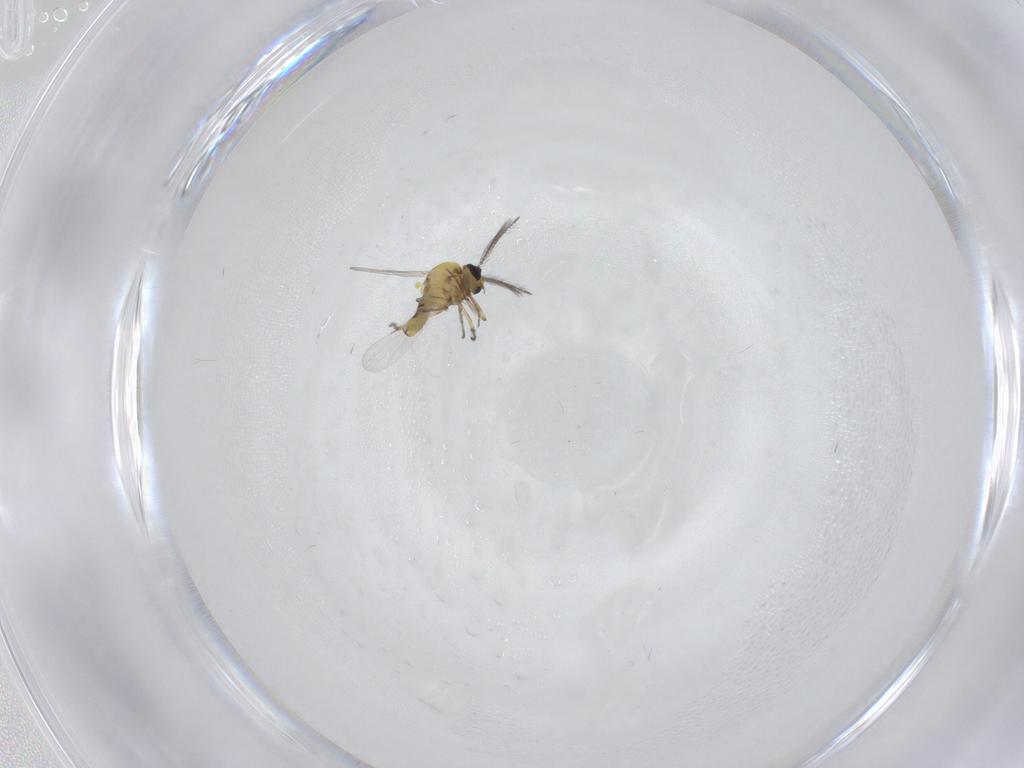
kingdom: Animalia
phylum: Arthropoda
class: Insecta
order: Diptera
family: Ceratopogonidae
